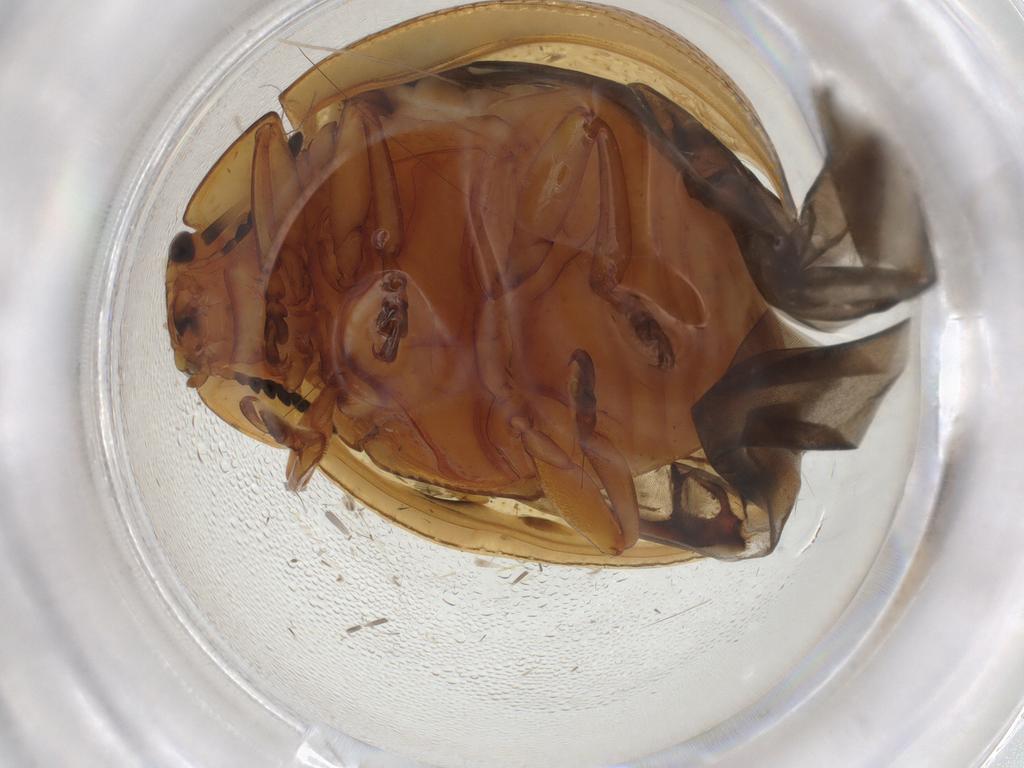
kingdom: Animalia
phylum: Arthropoda
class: Insecta
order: Coleoptera
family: Chrysomelidae
